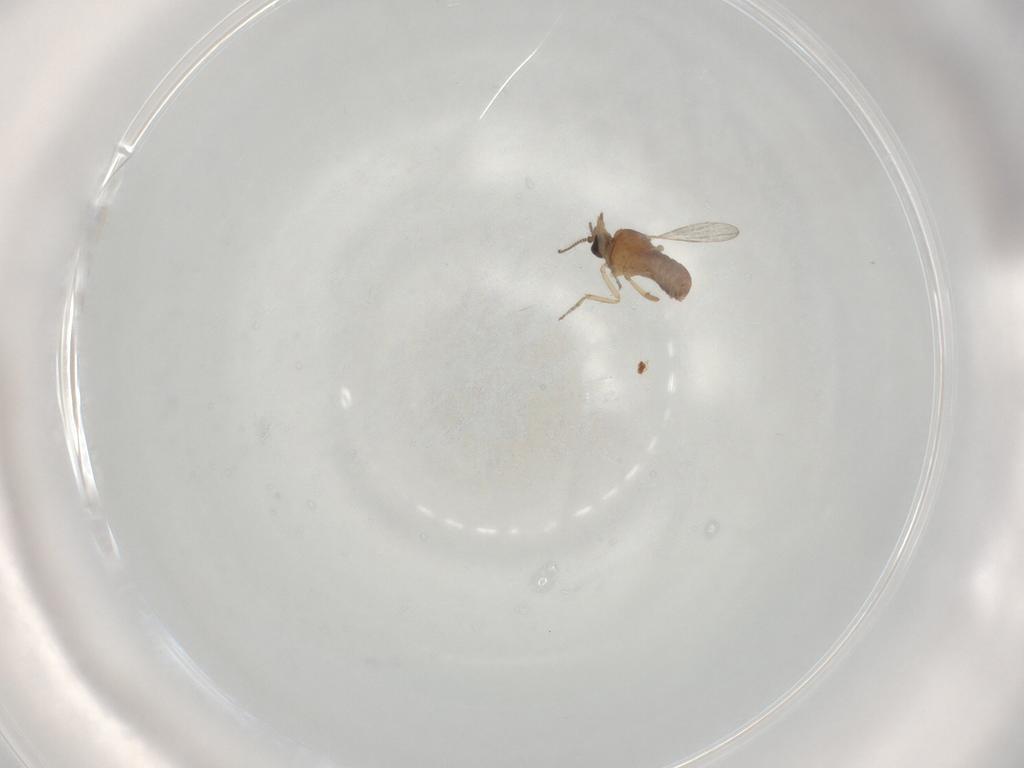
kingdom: Animalia
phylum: Arthropoda
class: Insecta
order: Diptera
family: Ceratopogonidae
